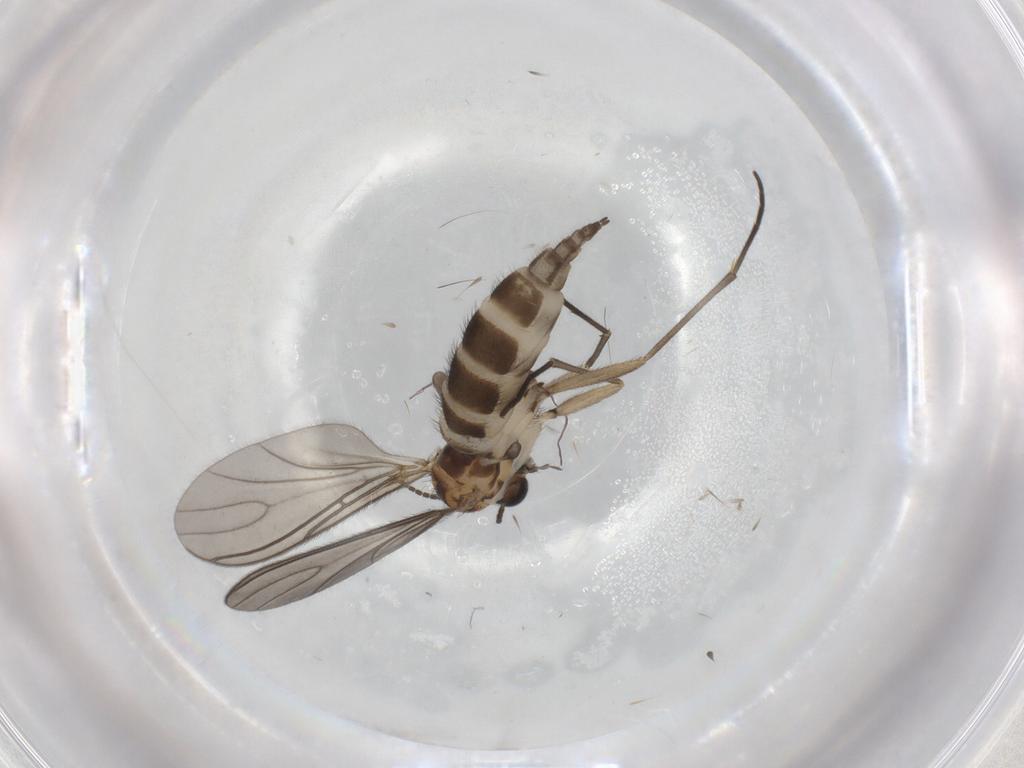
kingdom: Animalia
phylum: Arthropoda
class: Insecta
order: Diptera
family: Sciaridae
